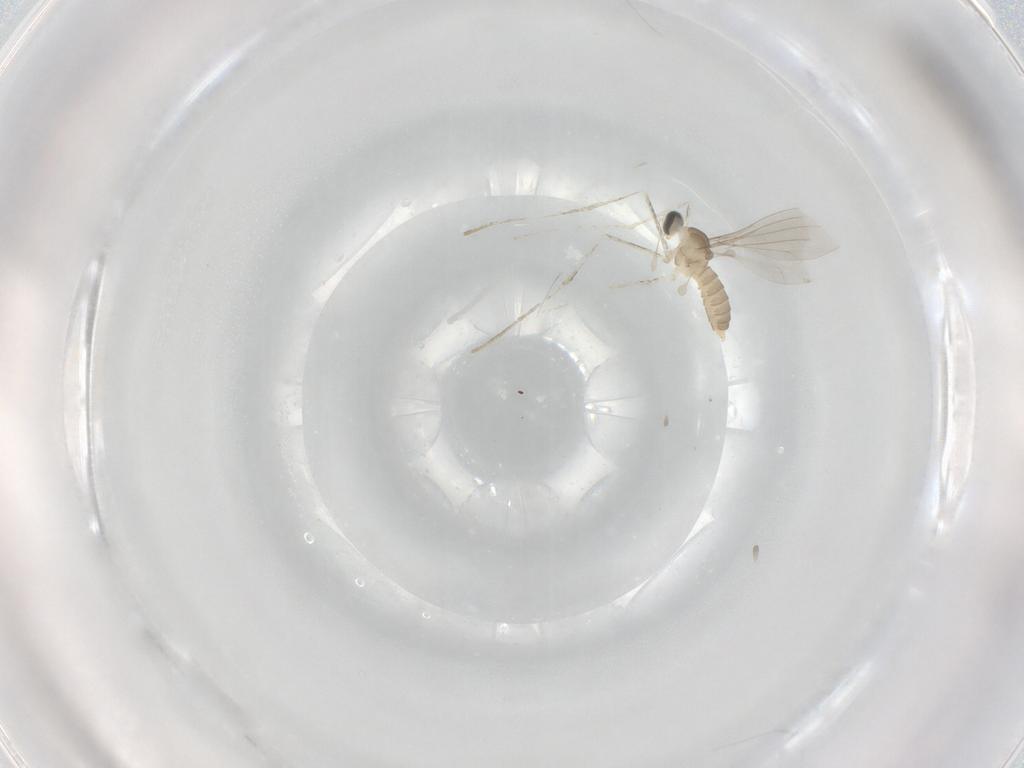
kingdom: Animalia
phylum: Arthropoda
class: Insecta
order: Diptera
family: Cecidomyiidae
